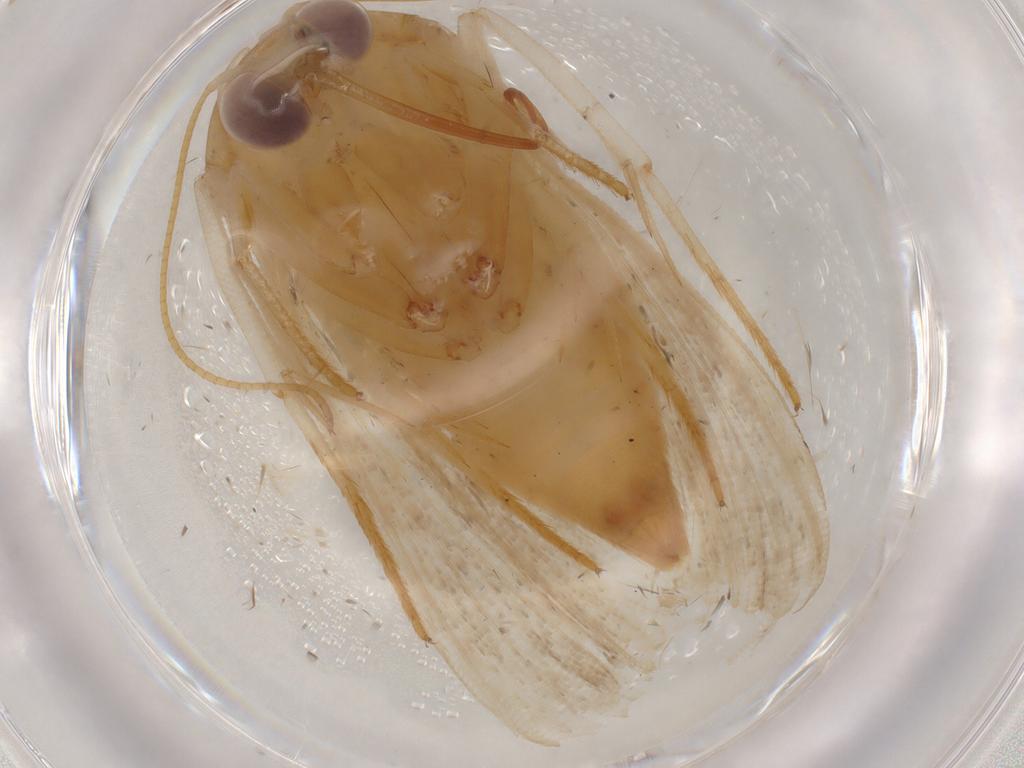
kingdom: Animalia
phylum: Arthropoda
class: Insecta
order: Lepidoptera
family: Noctuidae
